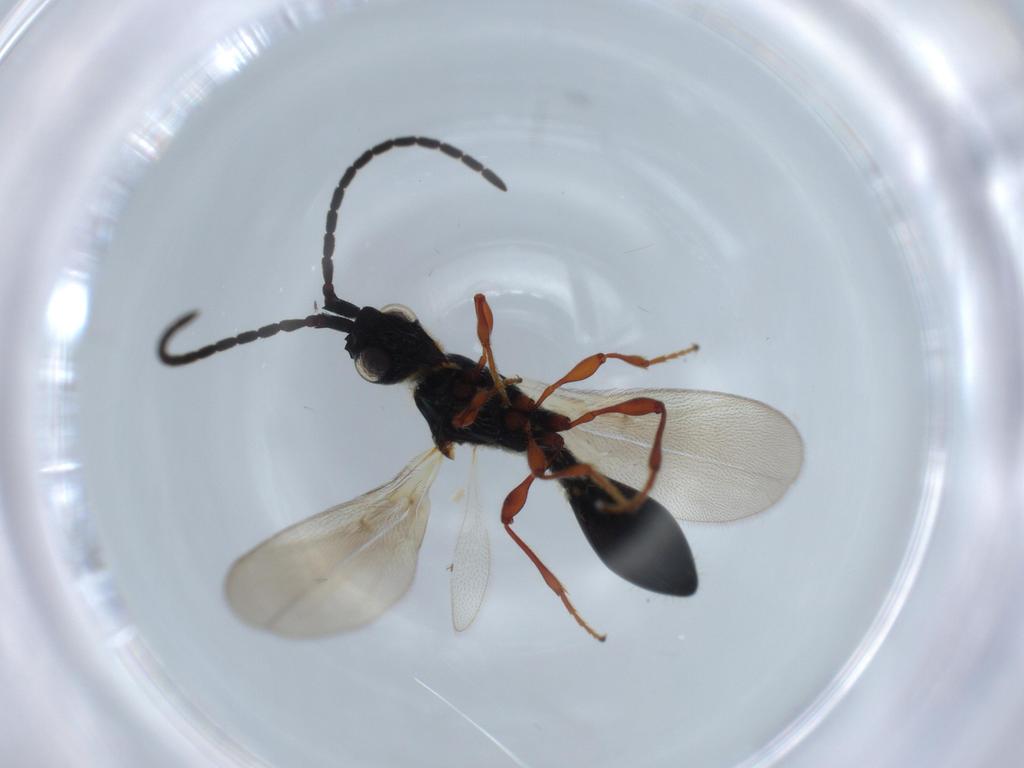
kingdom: Animalia
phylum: Arthropoda
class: Insecta
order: Hymenoptera
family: Diapriidae
